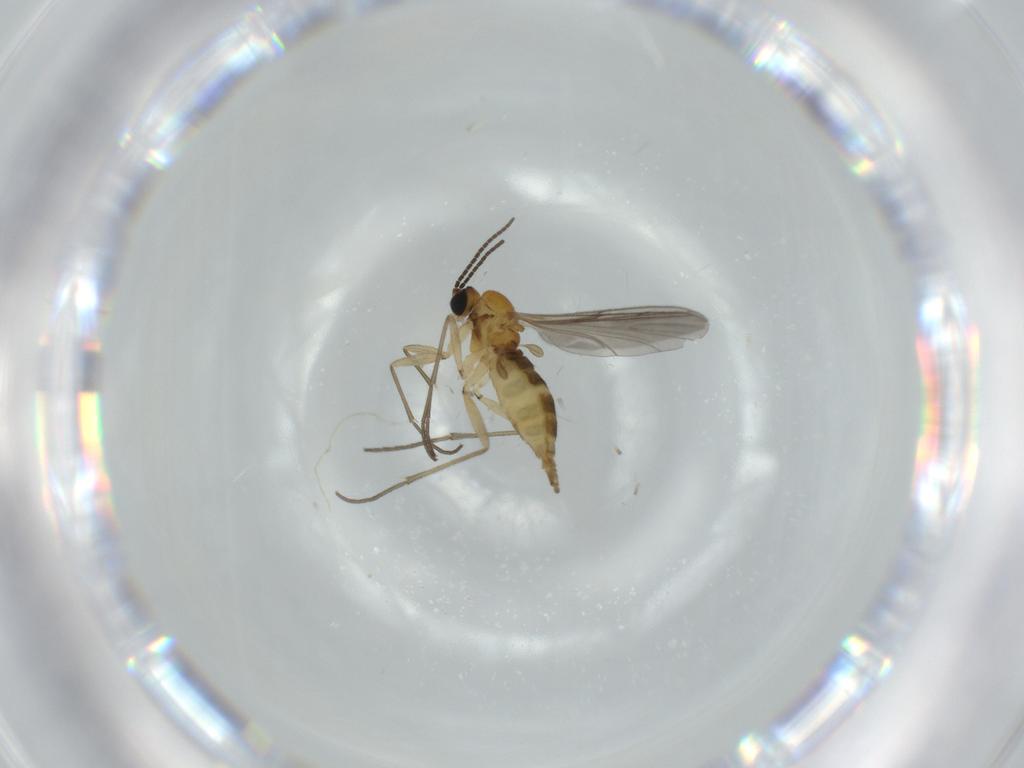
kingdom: Animalia
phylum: Arthropoda
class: Insecta
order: Diptera
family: Sciaridae
